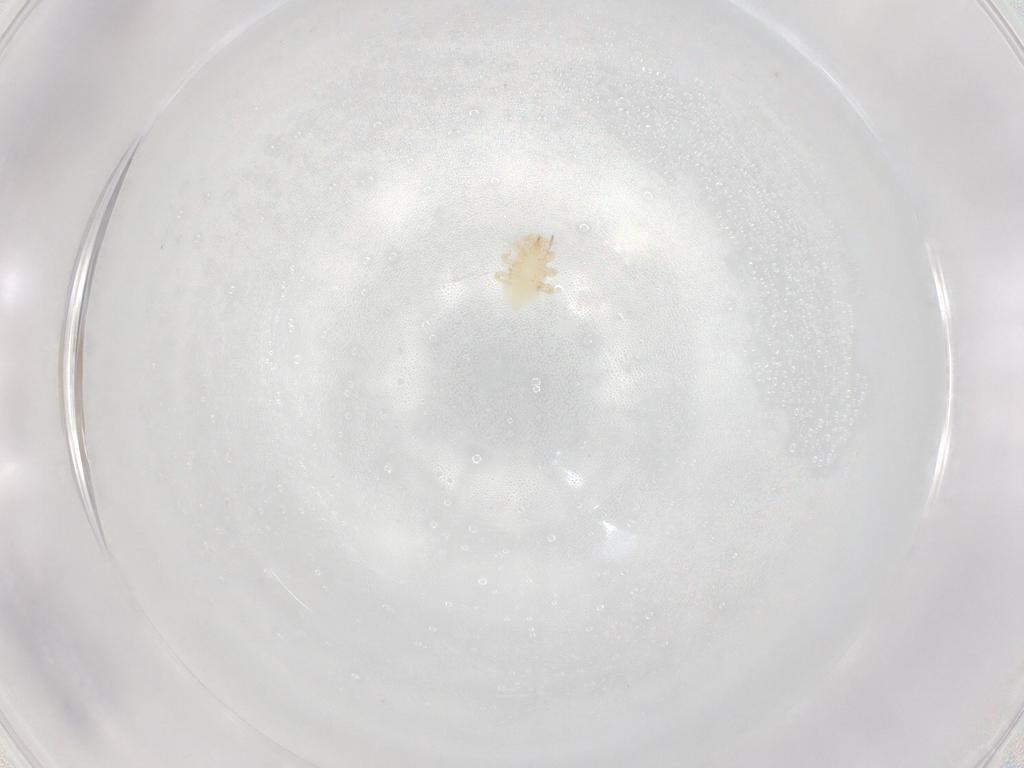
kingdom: Animalia
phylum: Arthropoda
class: Arachnida
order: Mesostigmata
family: Melicharidae
